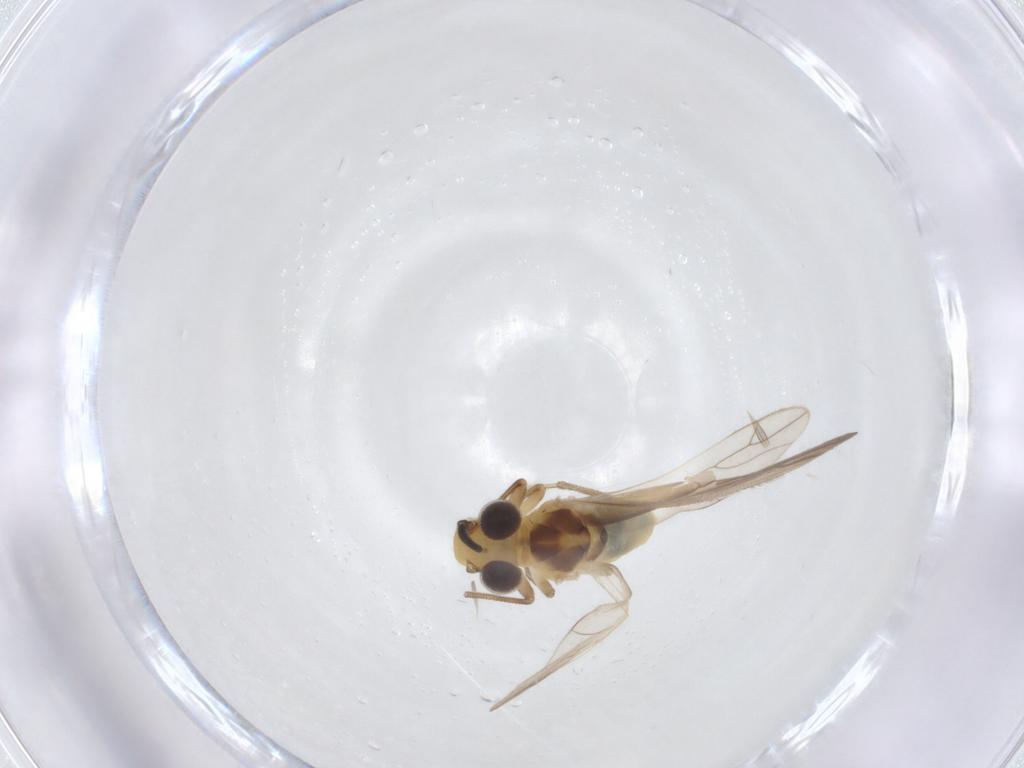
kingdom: Animalia
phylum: Arthropoda
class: Insecta
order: Diptera
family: Chironomidae
